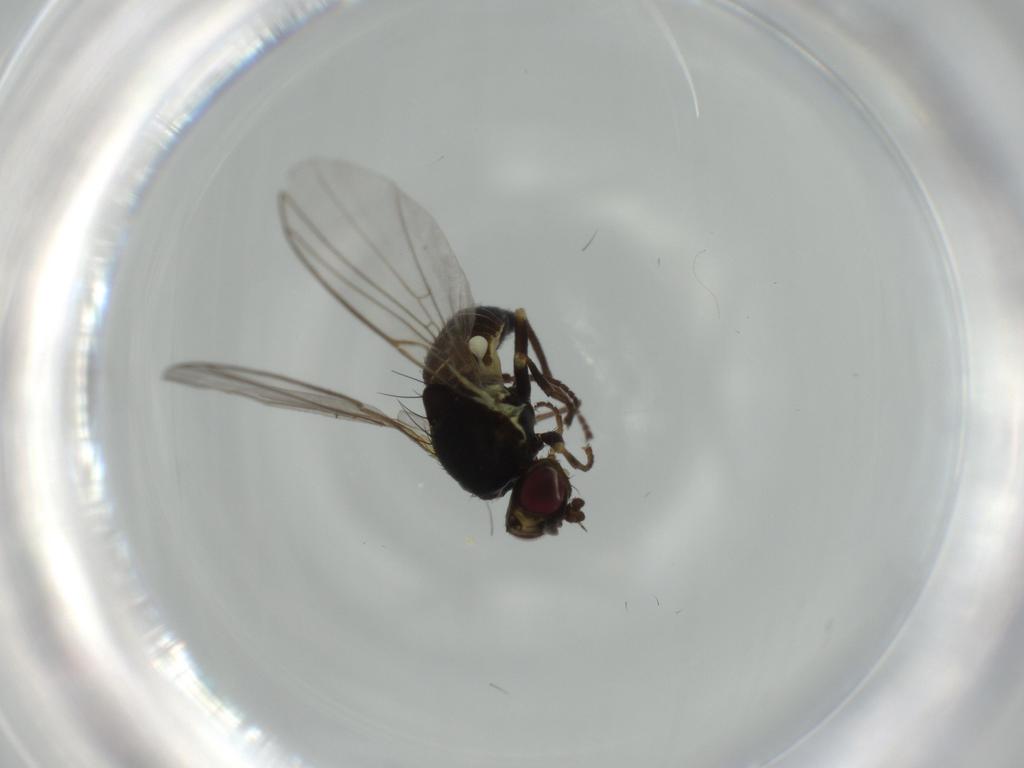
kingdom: Animalia
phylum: Arthropoda
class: Insecta
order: Diptera
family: Agromyzidae
